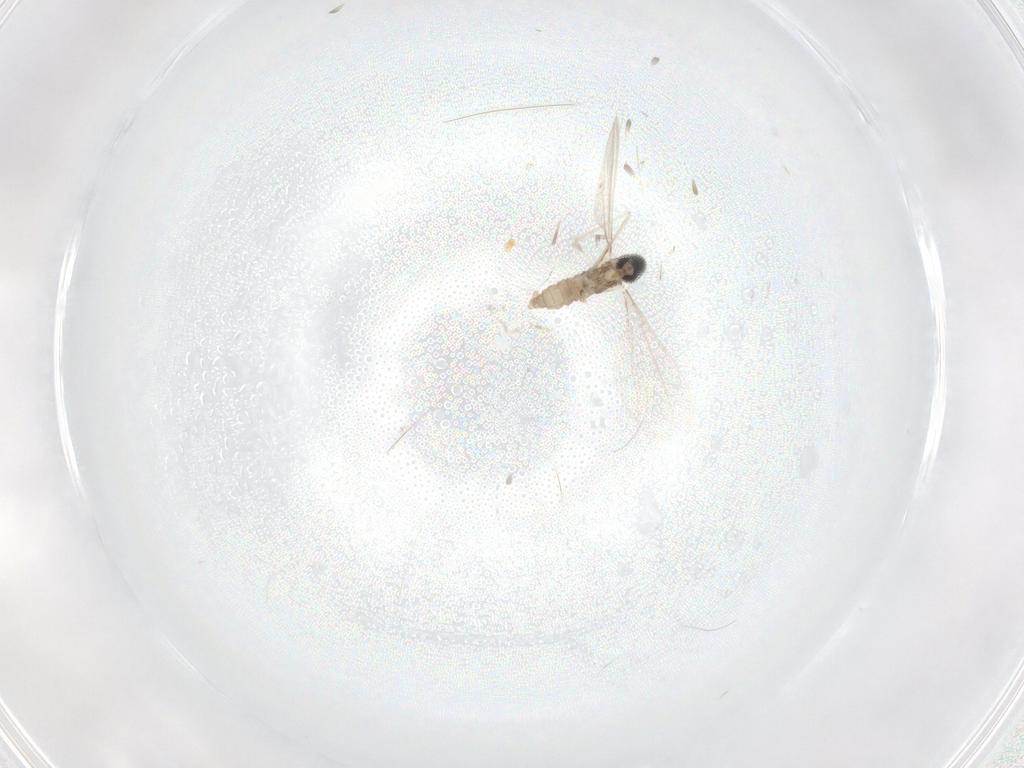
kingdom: Animalia
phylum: Arthropoda
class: Insecta
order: Diptera
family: Cecidomyiidae
